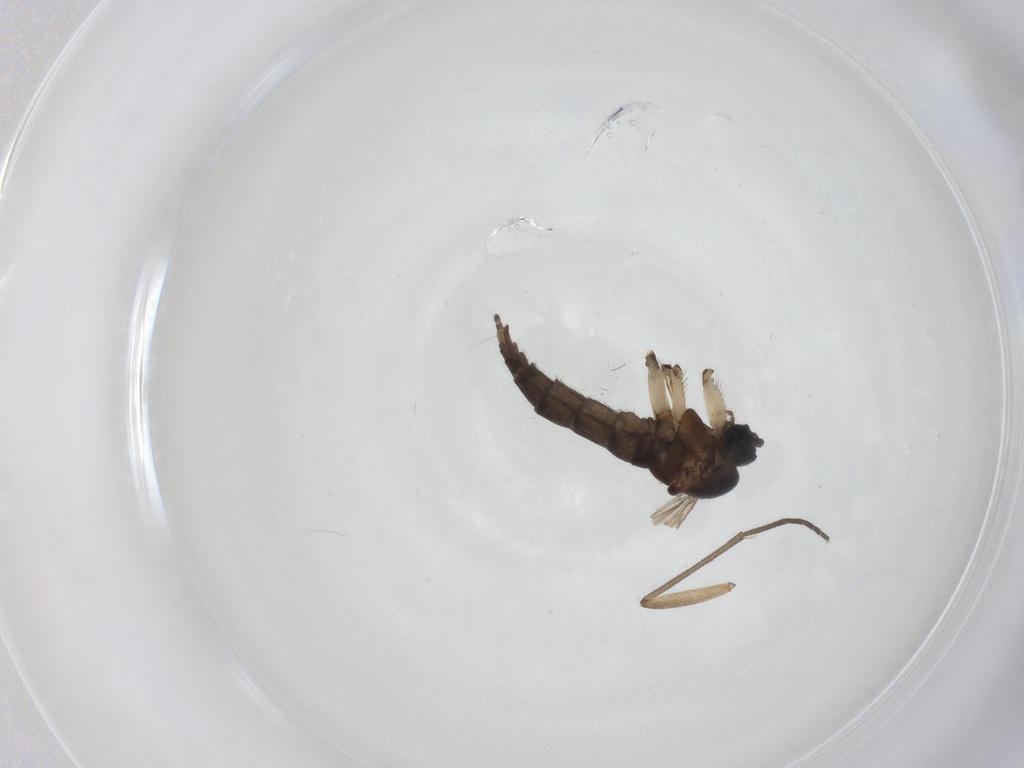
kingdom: Animalia
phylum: Arthropoda
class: Insecta
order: Diptera
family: Sciaridae
